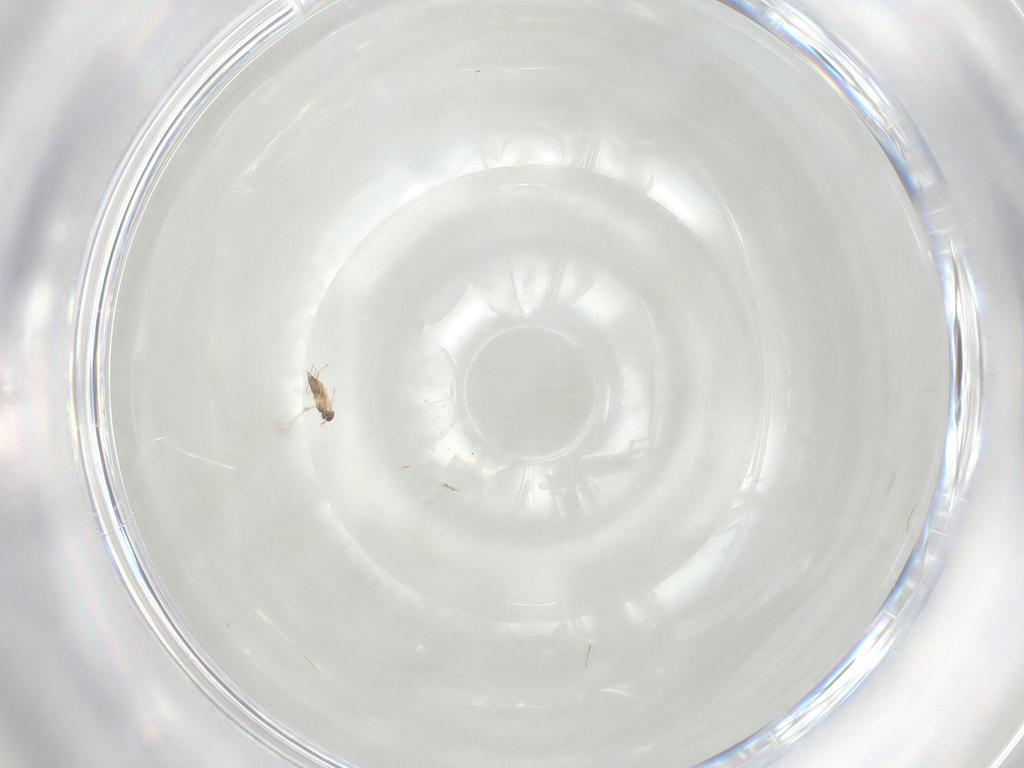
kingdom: Animalia
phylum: Arthropoda
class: Insecta
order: Hymenoptera
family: Mymaridae
